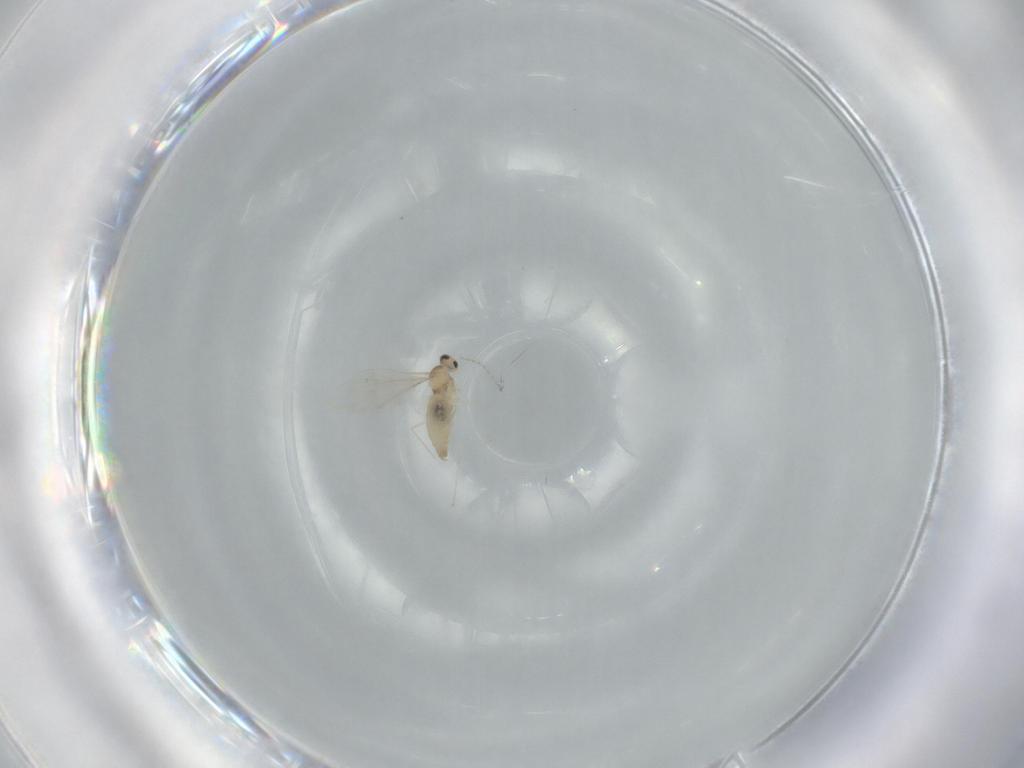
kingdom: Animalia
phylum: Arthropoda
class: Insecta
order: Diptera
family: Cecidomyiidae
